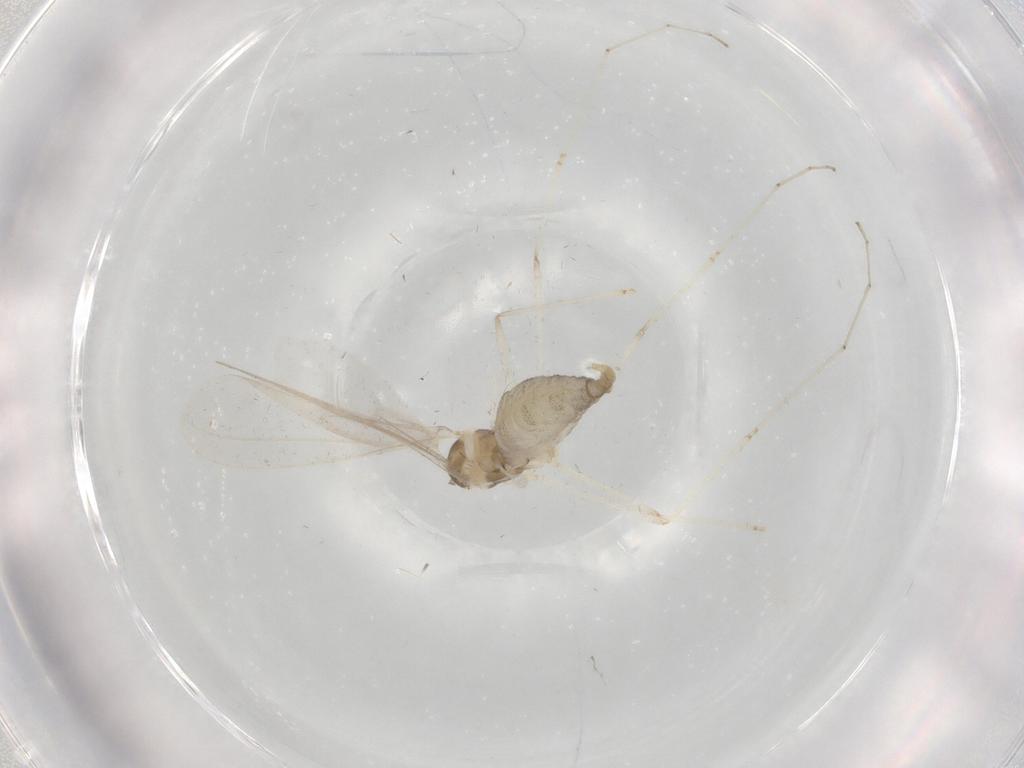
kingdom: Animalia
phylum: Arthropoda
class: Insecta
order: Diptera
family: Cecidomyiidae
